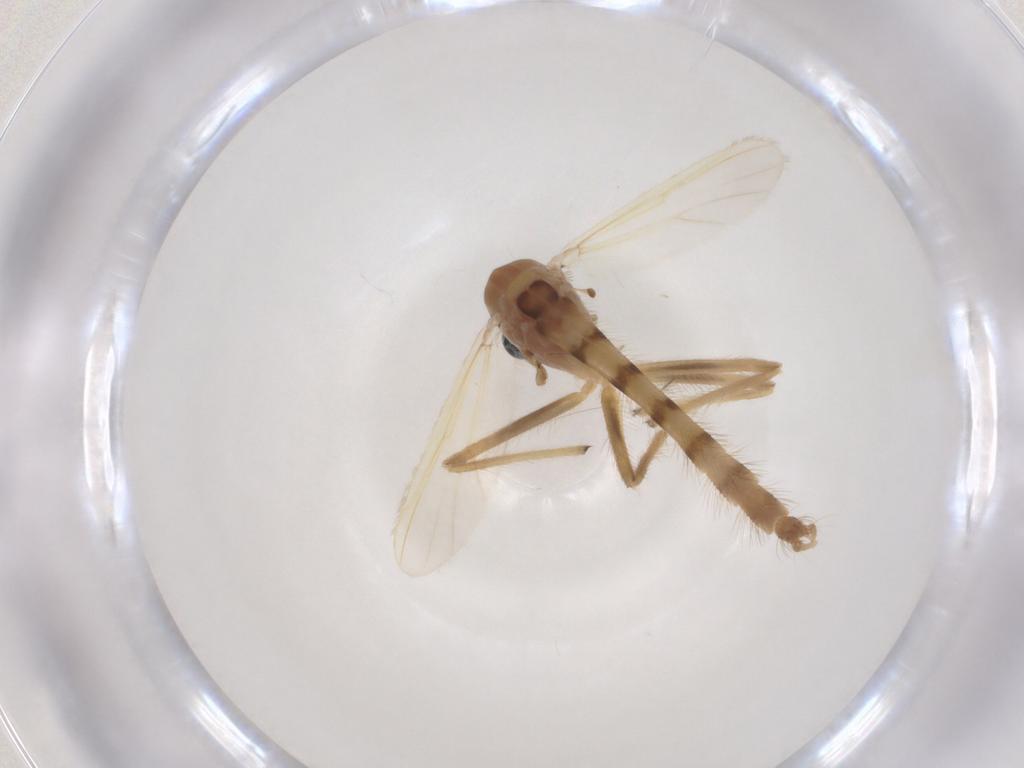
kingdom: Animalia
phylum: Arthropoda
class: Insecta
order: Diptera
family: Chironomidae
